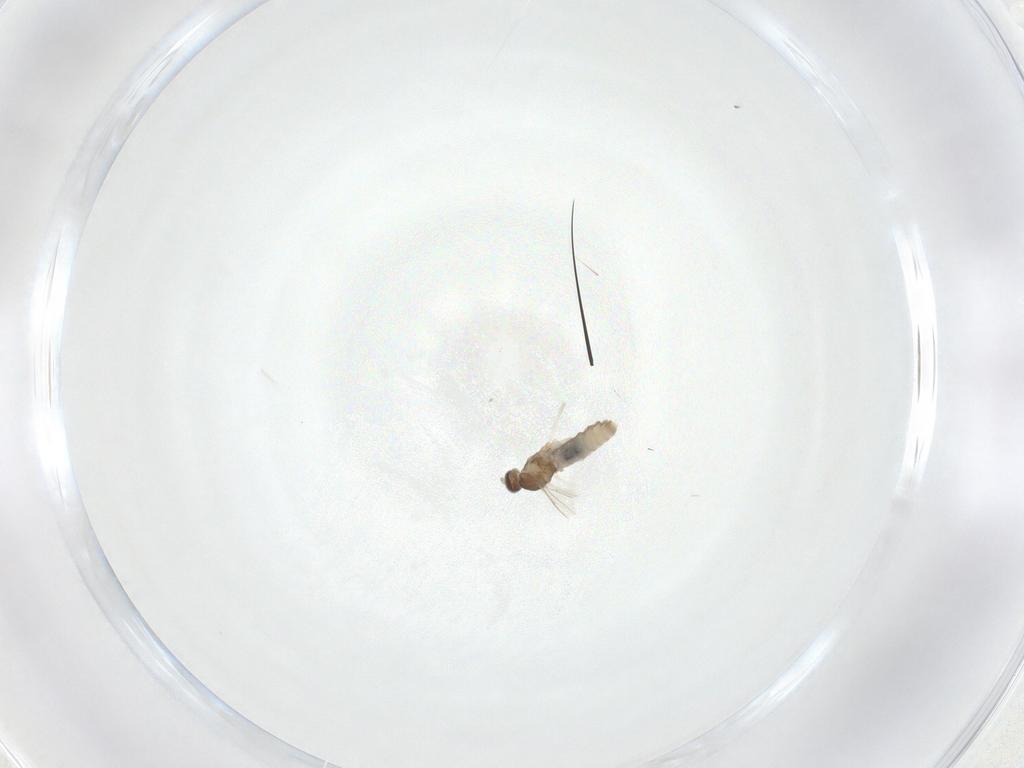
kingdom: Animalia
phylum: Arthropoda
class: Insecta
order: Diptera
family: Cecidomyiidae
